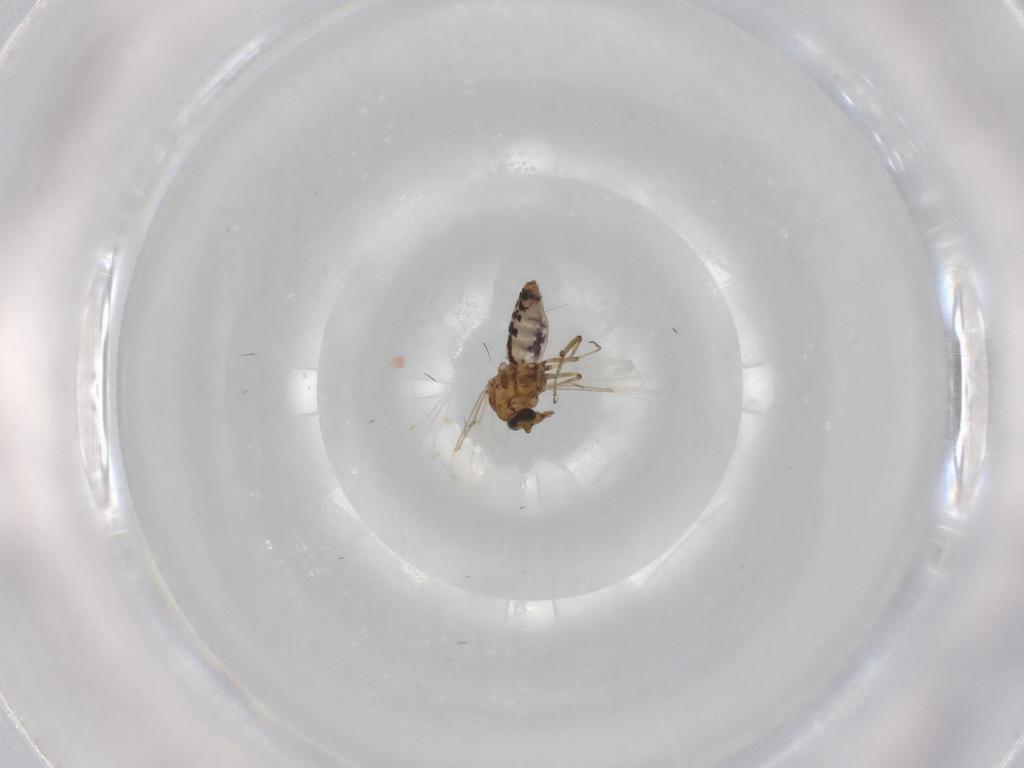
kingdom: Animalia
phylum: Arthropoda
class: Insecta
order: Diptera
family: Ceratopogonidae
